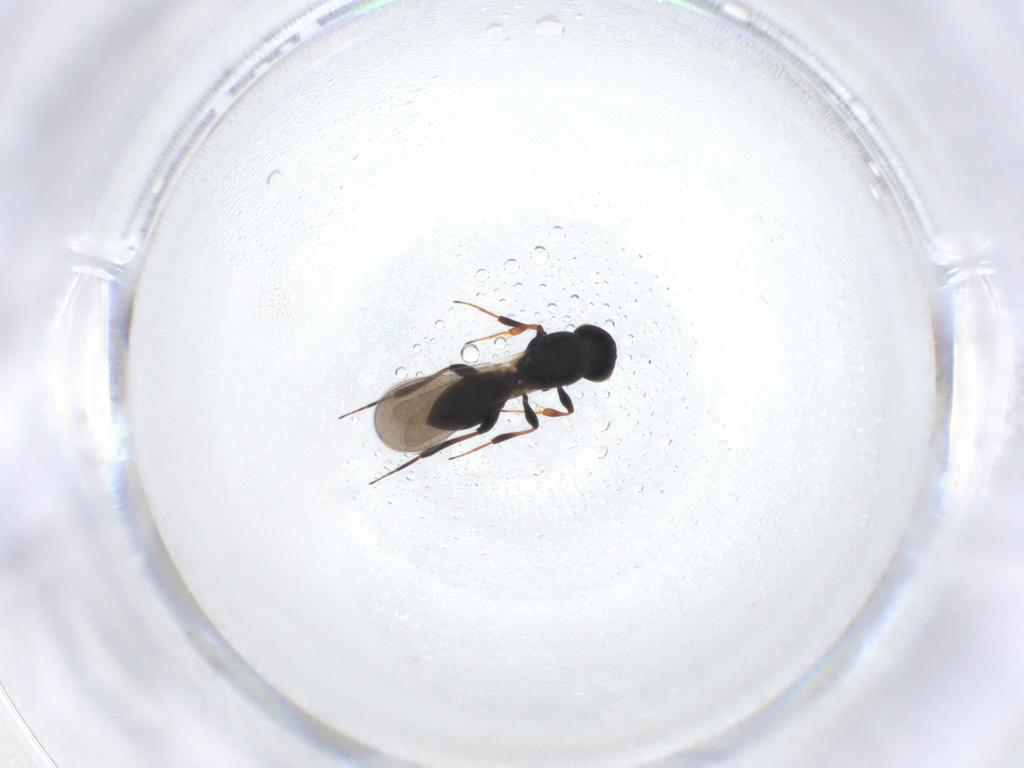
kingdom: Animalia
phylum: Arthropoda
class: Insecta
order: Hymenoptera
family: Platygastridae
